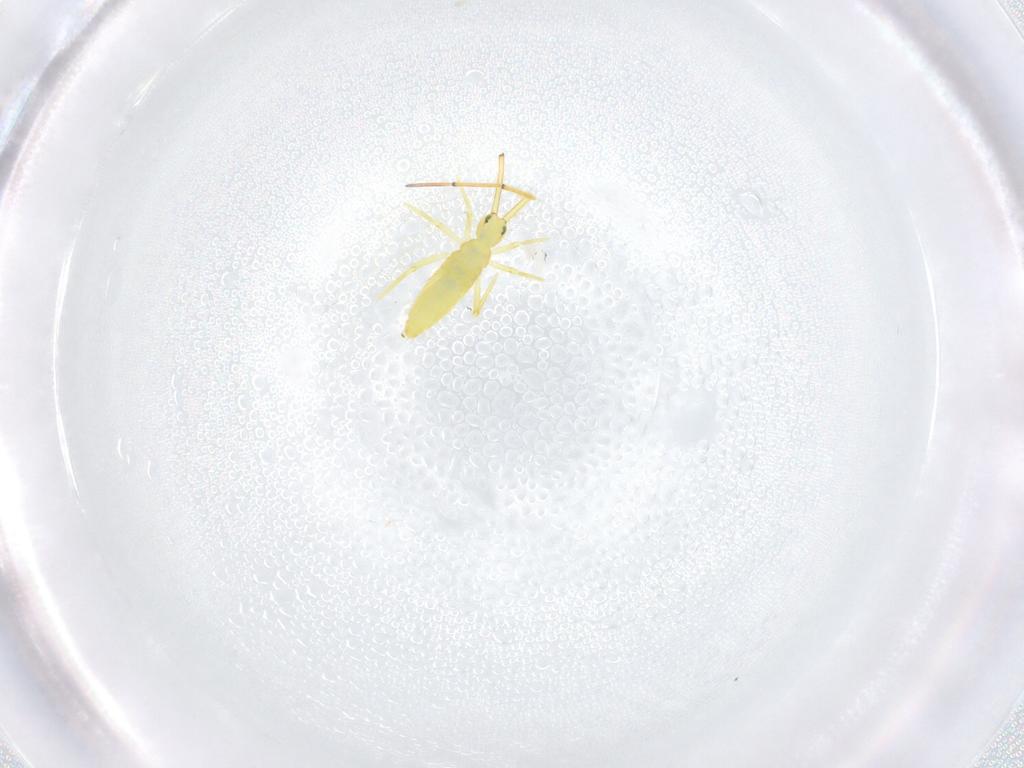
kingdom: Animalia
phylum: Arthropoda
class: Collembola
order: Entomobryomorpha
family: Paronellidae
